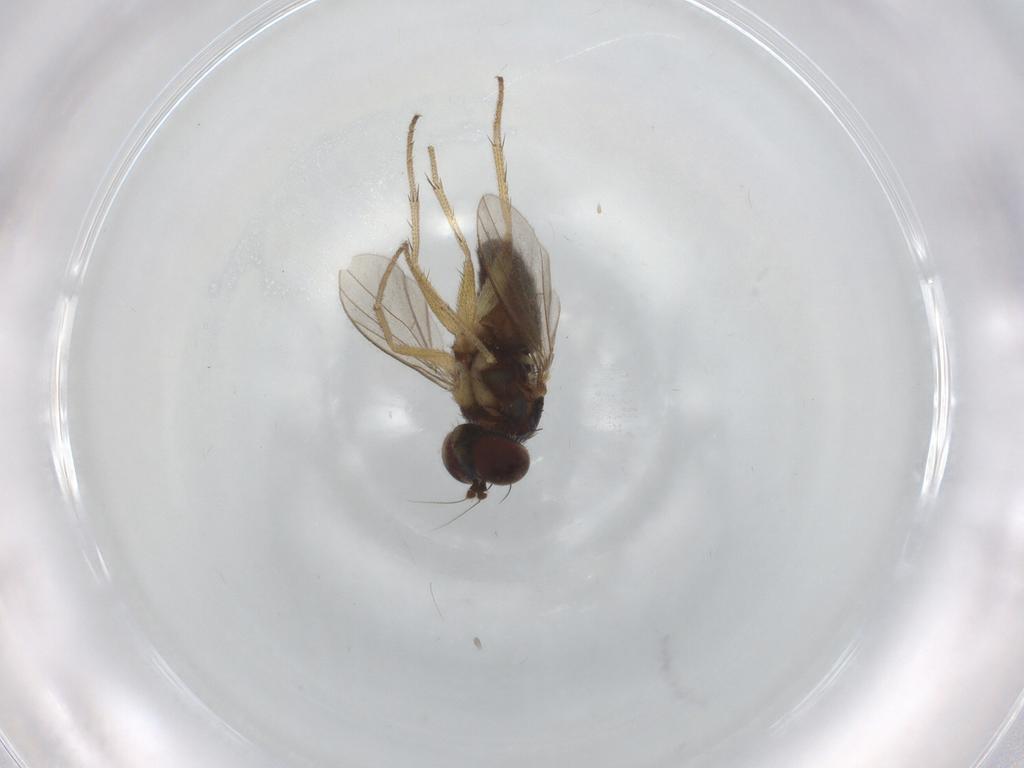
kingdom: Animalia
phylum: Arthropoda
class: Insecta
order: Diptera
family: Ceratopogonidae
